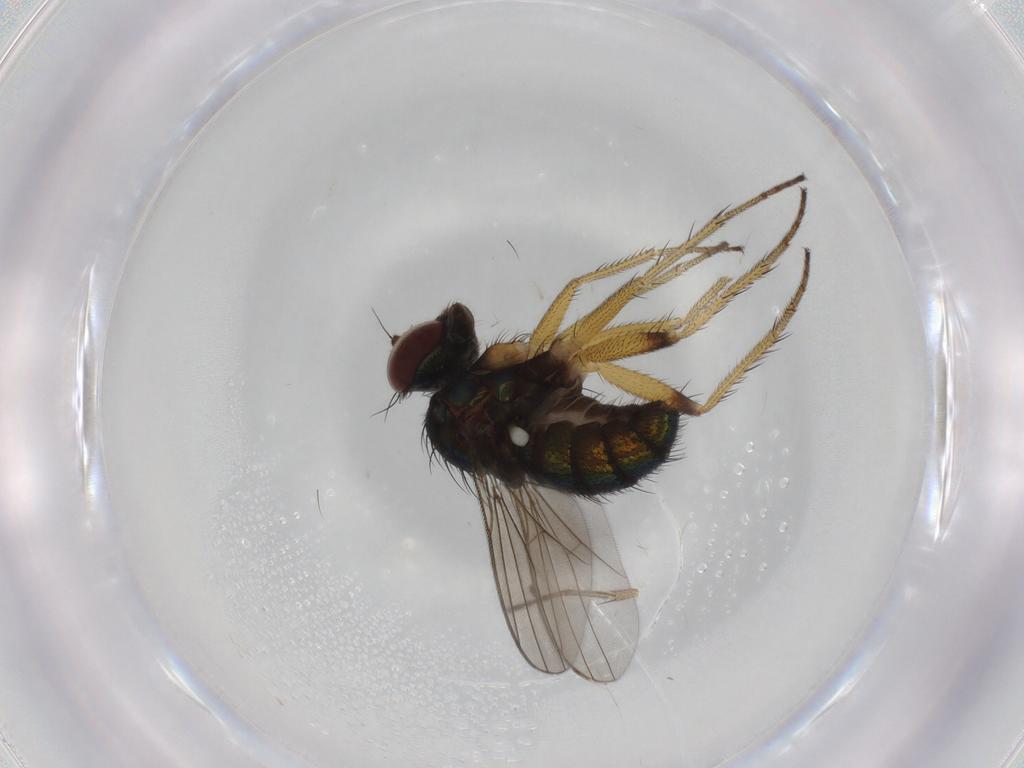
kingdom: Animalia
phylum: Arthropoda
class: Insecta
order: Diptera
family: Dolichopodidae
